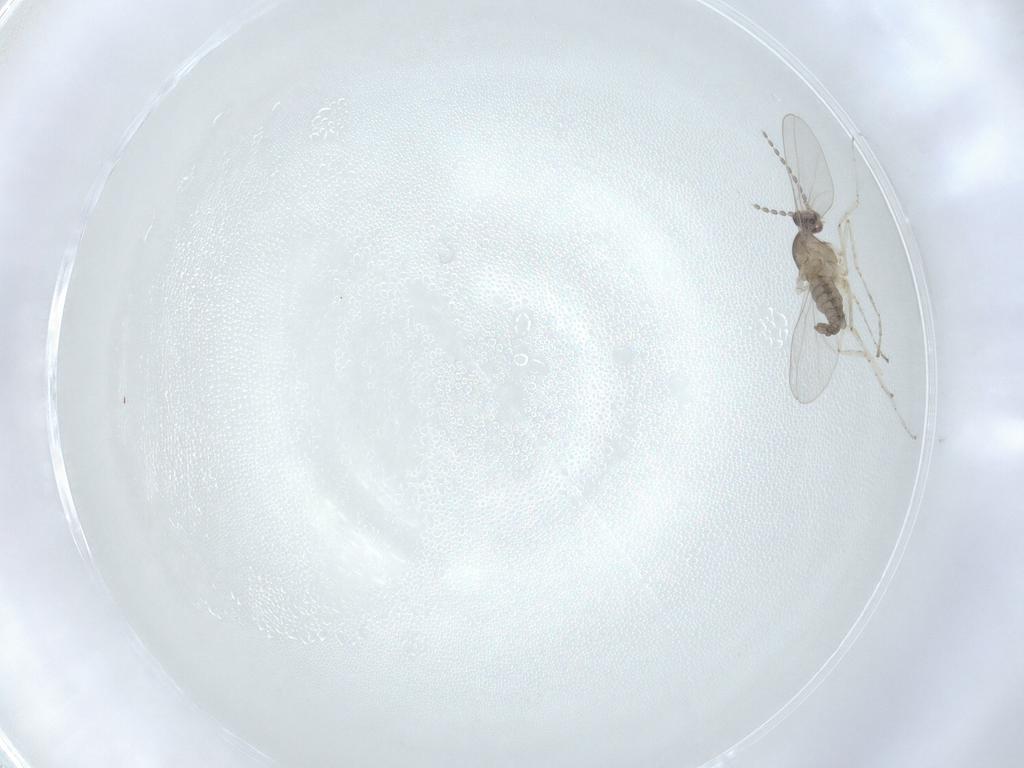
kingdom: Animalia
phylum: Arthropoda
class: Insecta
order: Diptera
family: Cecidomyiidae
